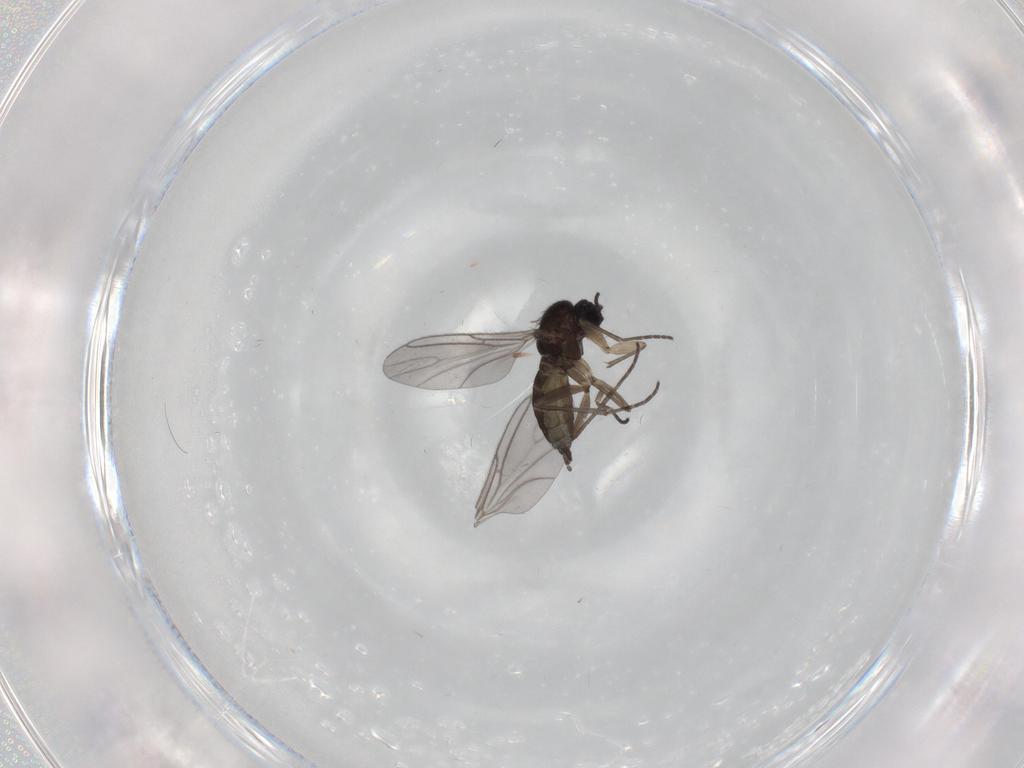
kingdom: Animalia
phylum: Arthropoda
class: Insecta
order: Diptera
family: Sciaridae
